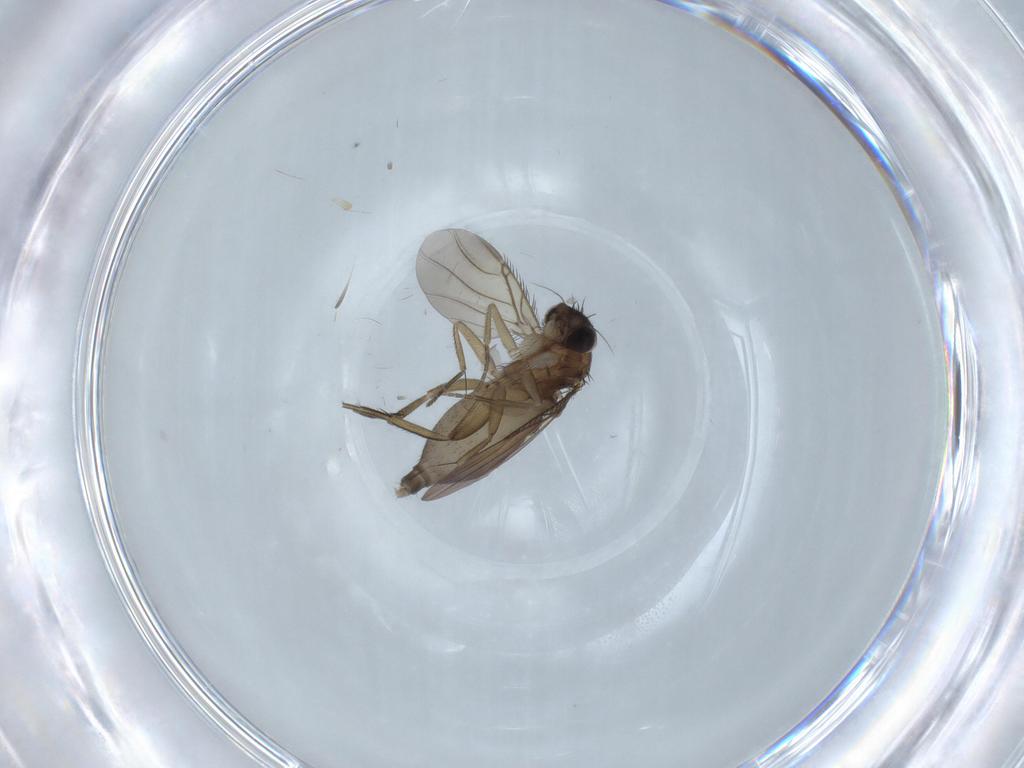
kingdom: Animalia
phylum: Arthropoda
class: Insecta
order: Diptera
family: Phoridae
